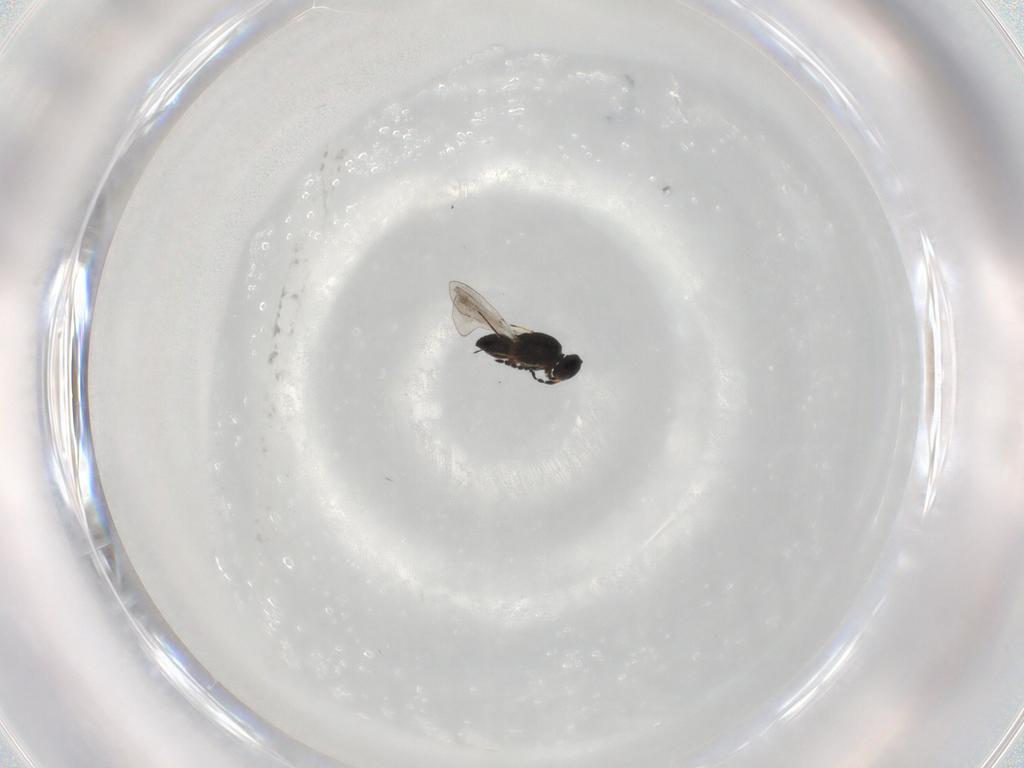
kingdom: Animalia
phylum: Arthropoda
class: Insecta
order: Hymenoptera
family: Platygastridae
